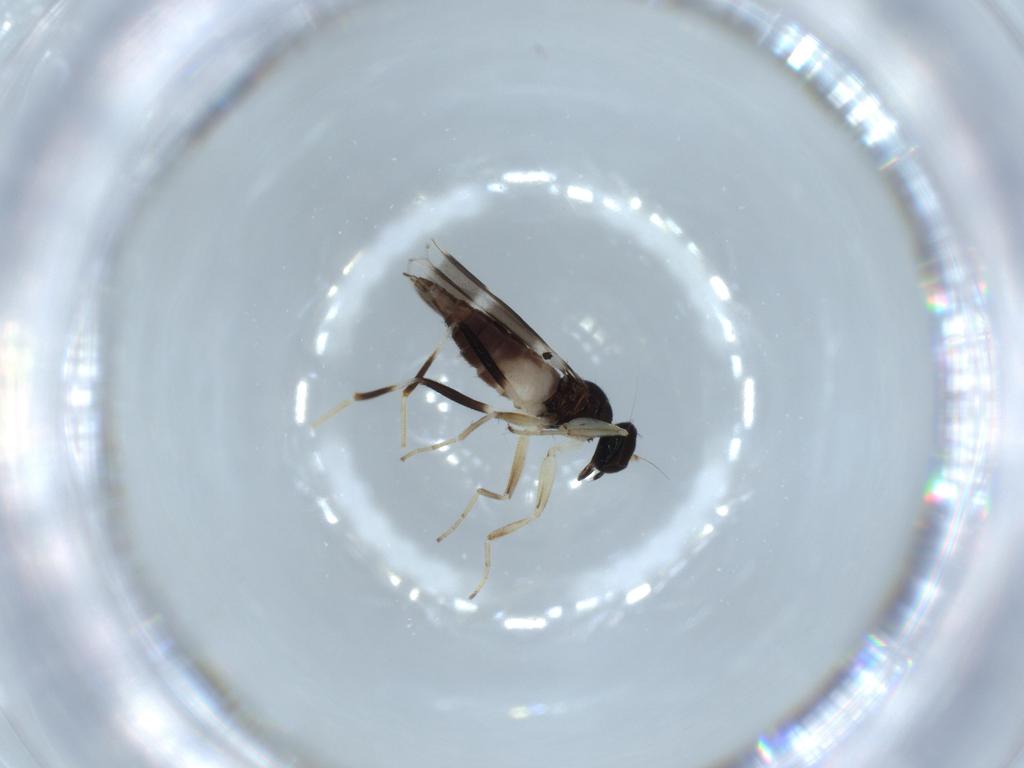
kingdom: Animalia
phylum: Arthropoda
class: Insecta
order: Diptera
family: Hybotidae
